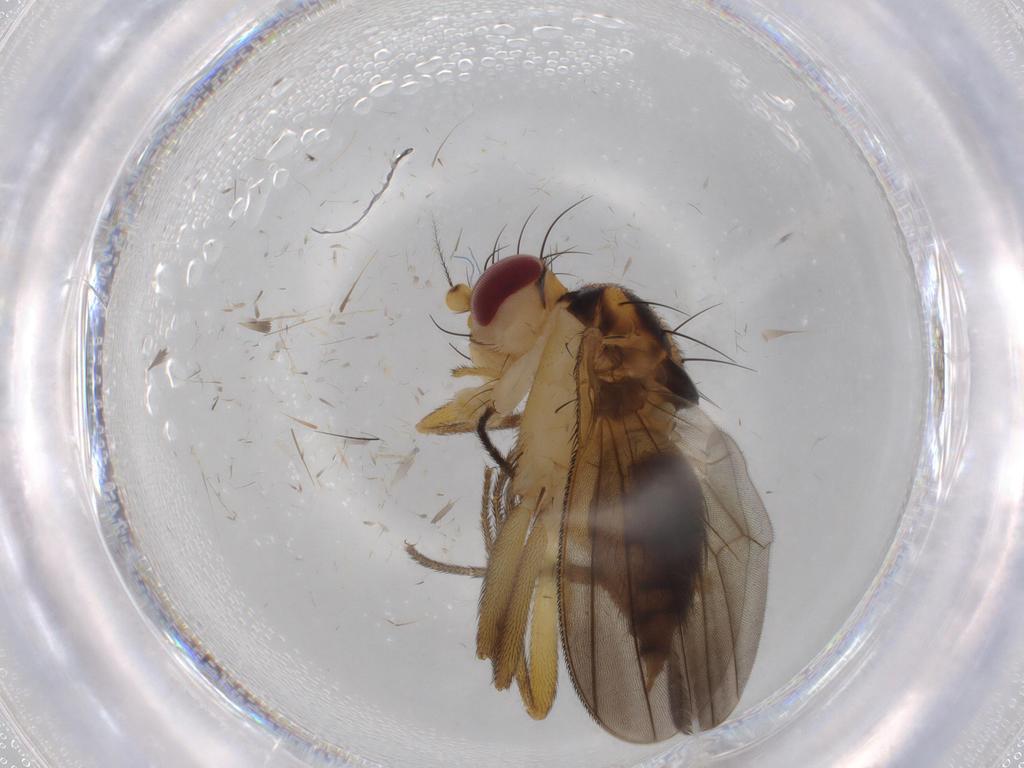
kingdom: Animalia
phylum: Arthropoda
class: Insecta
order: Diptera
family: Clusiidae
